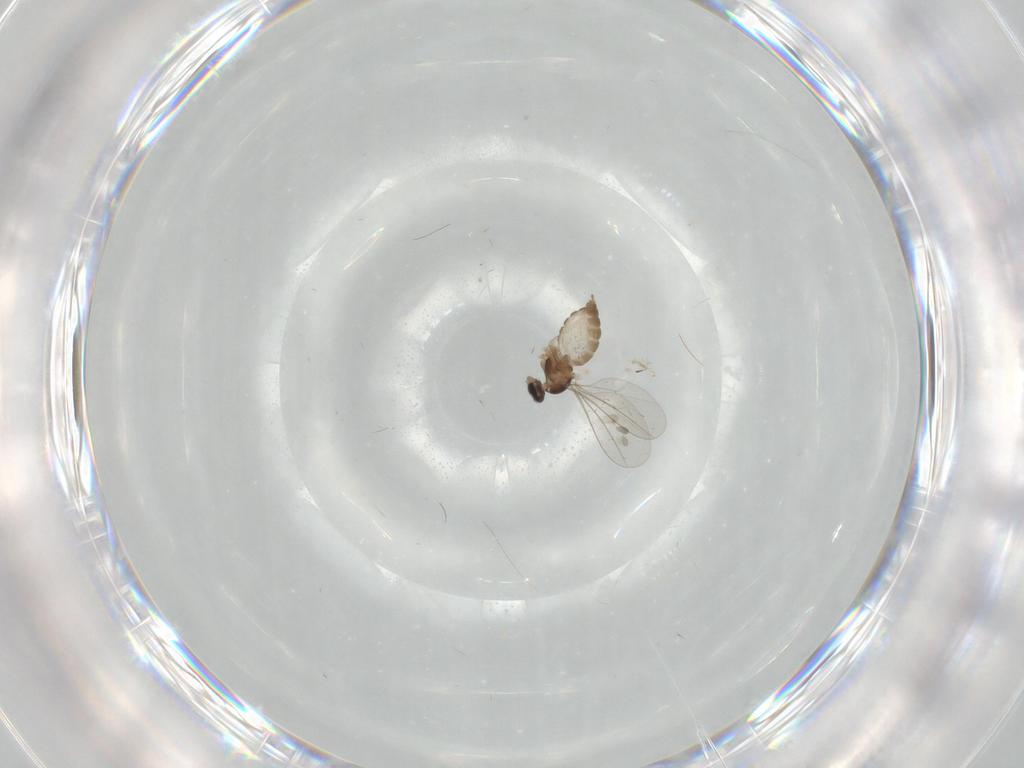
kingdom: Animalia
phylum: Arthropoda
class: Insecta
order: Diptera
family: Cecidomyiidae
